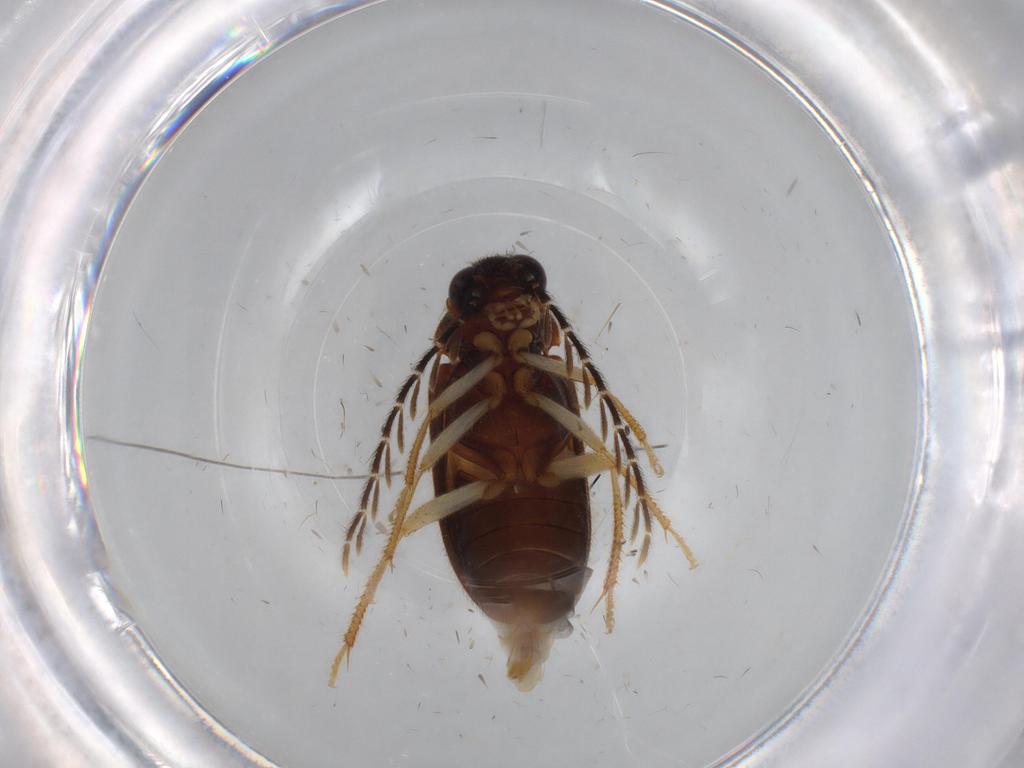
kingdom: Animalia
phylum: Arthropoda
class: Insecta
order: Coleoptera
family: Ptilodactylidae
